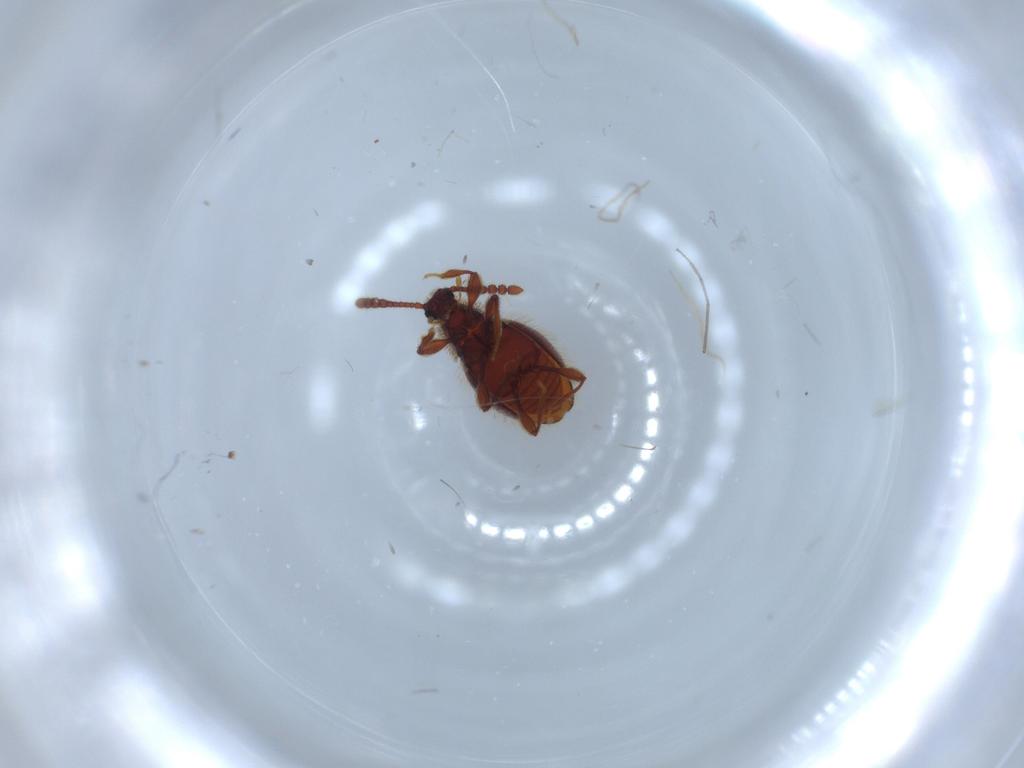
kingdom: Animalia
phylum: Arthropoda
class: Insecta
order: Coleoptera
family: Staphylinidae
